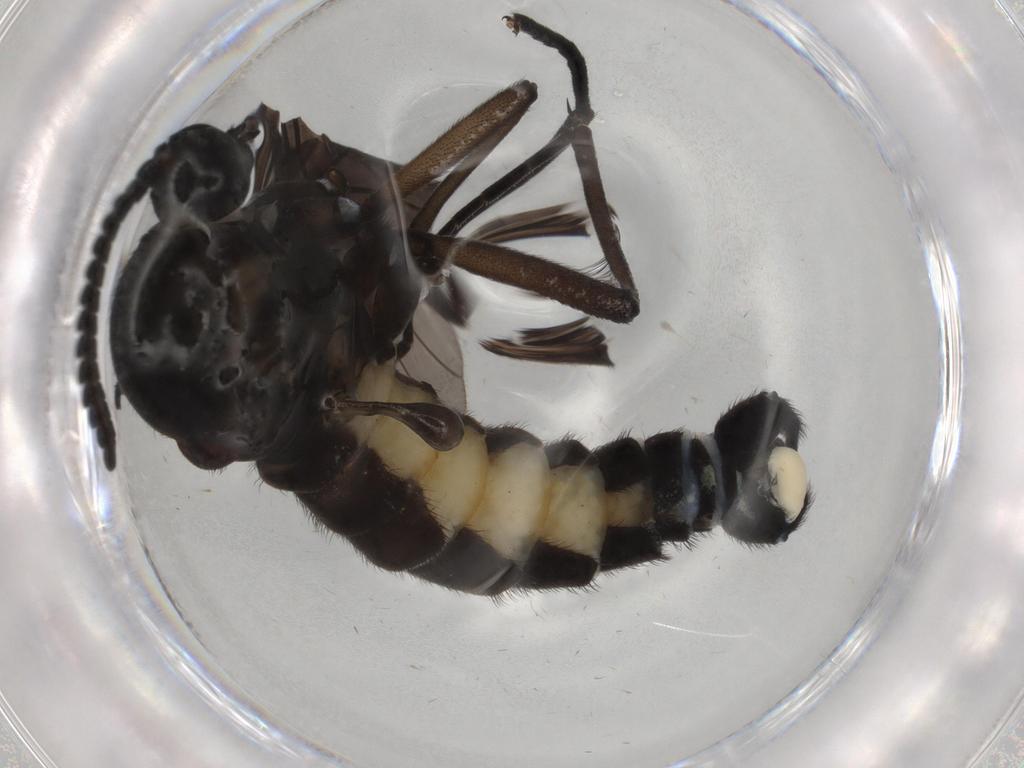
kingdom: Animalia
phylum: Arthropoda
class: Insecta
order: Diptera
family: Sciaridae
